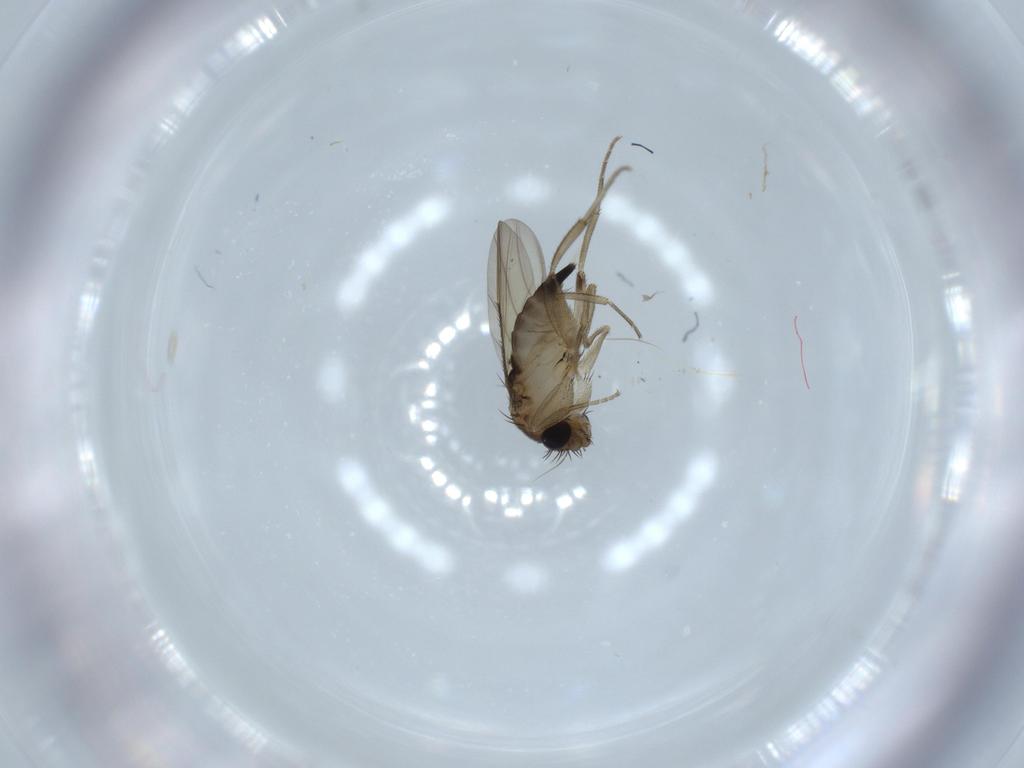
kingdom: Animalia
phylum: Arthropoda
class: Insecta
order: Diptera
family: Phoridae
